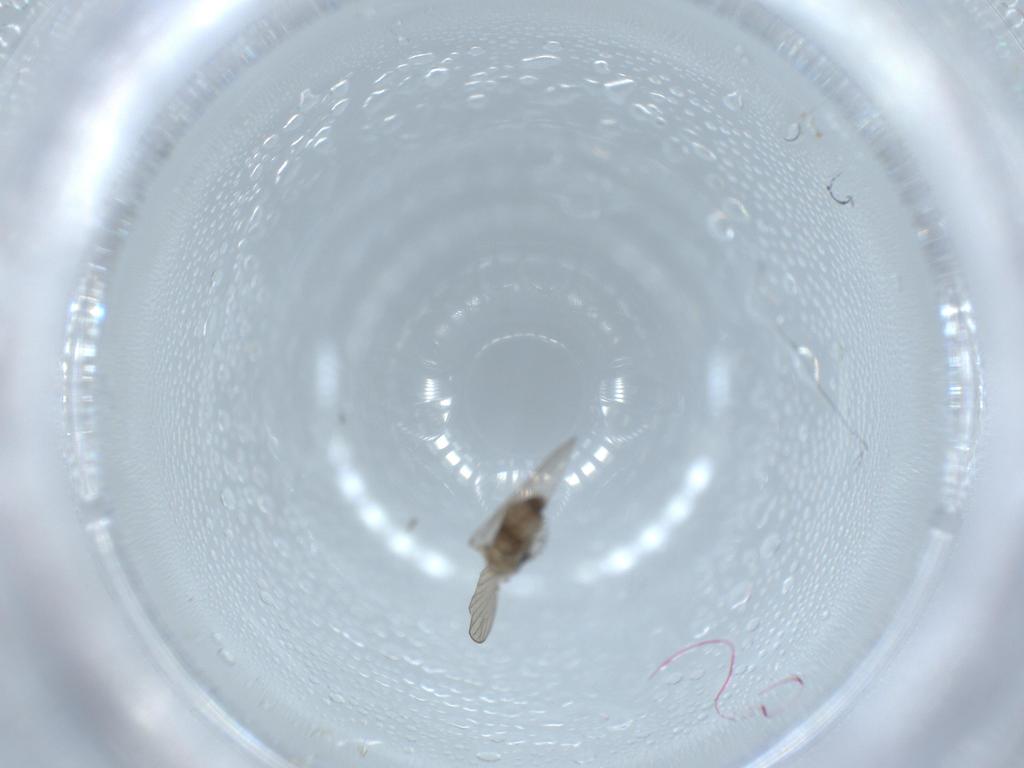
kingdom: Animalia
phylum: Arthropoda
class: Insecta
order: Diptera
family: Psychodidae
